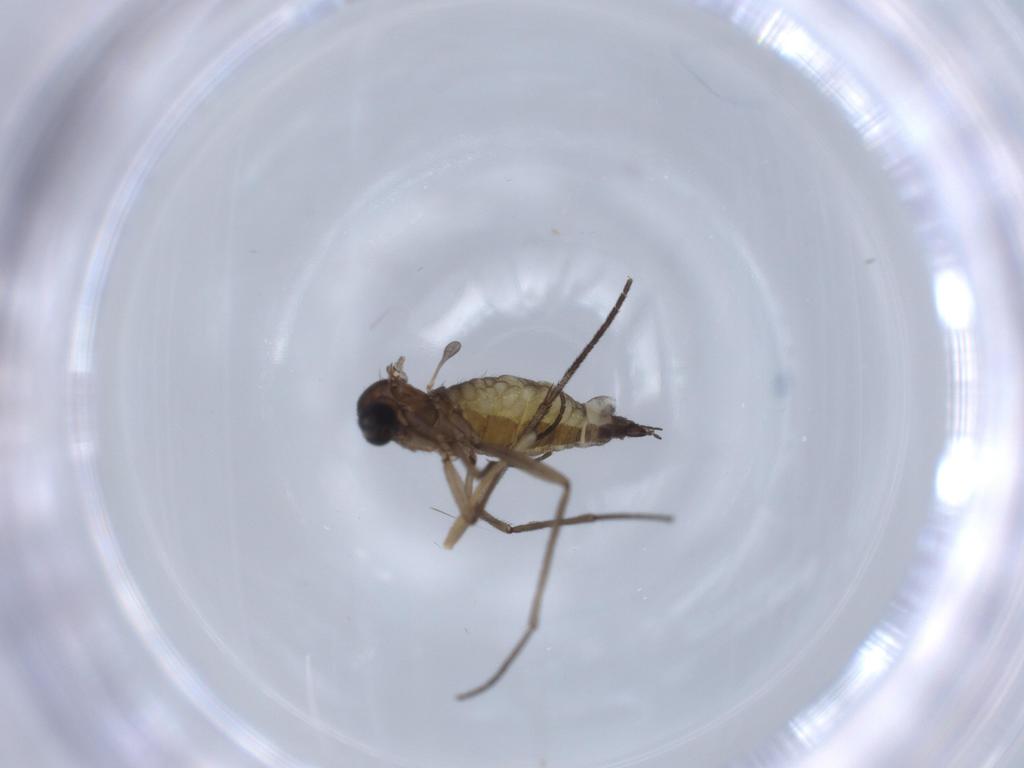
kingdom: Animalia
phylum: Arthropoda
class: Insecta
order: Diptera
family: Sciaridae
